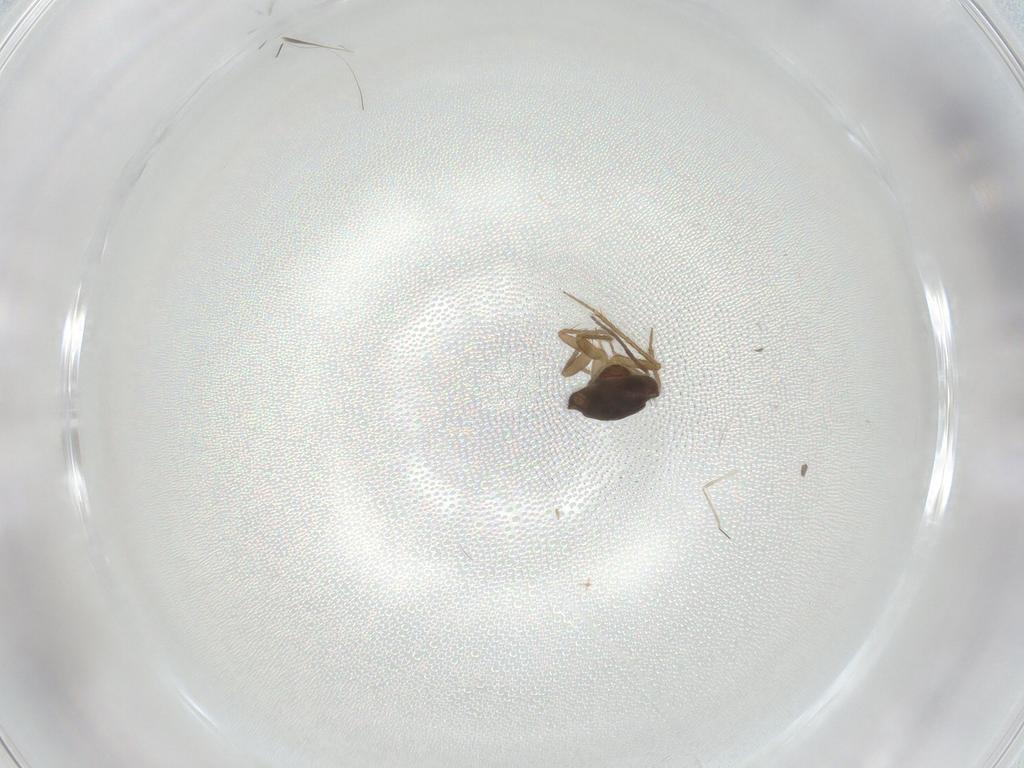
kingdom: Animalia
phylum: Arthropoda
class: Insecta
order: Hemiptera
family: Ceratocombidae
